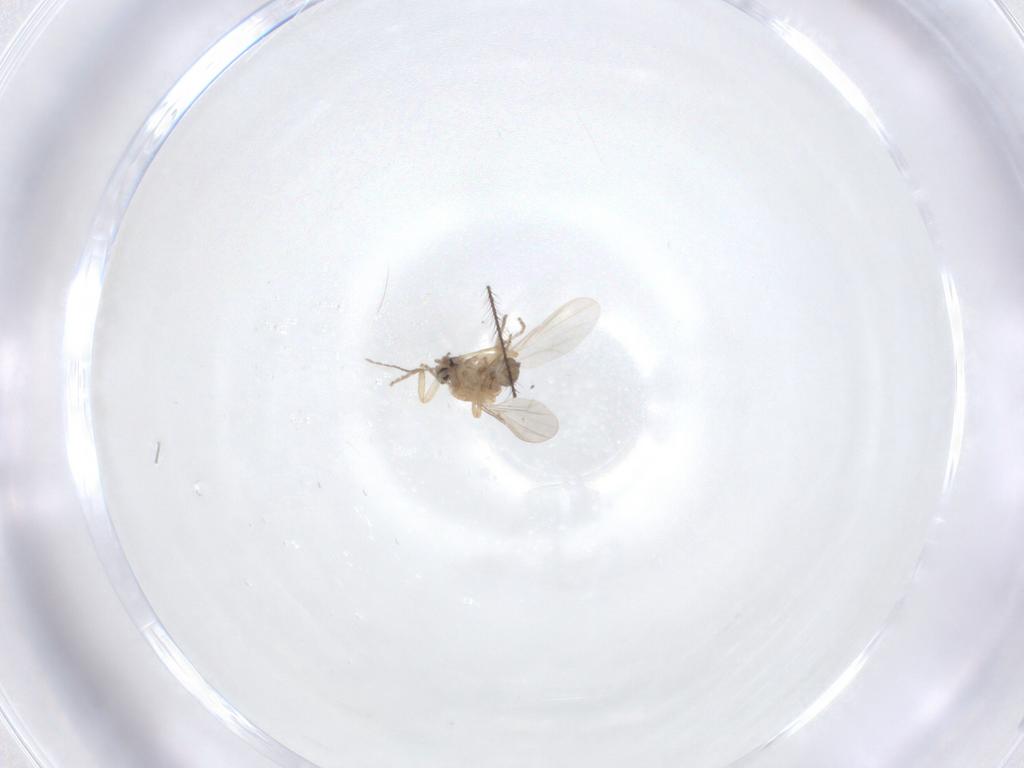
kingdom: Animalia
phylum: Arthropoda
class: Insecta
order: Diptera
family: Ceratopogonidae
